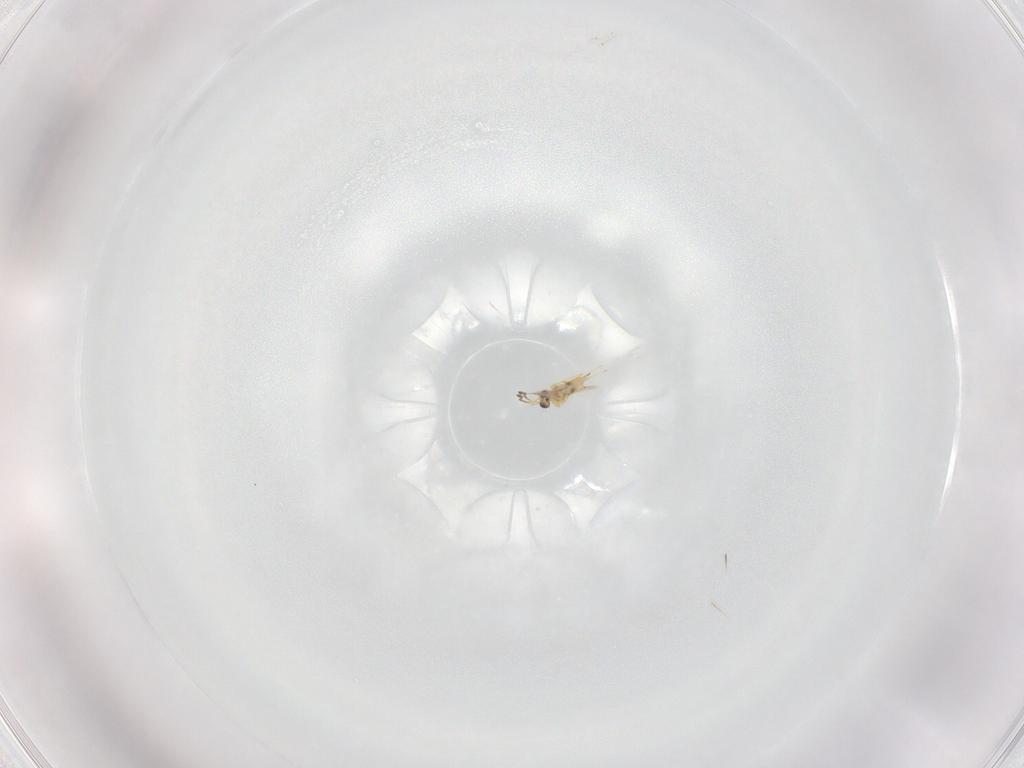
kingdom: Animalia
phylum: Arthropoda
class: Insecta
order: Hymenoptera
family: Mymaridae
